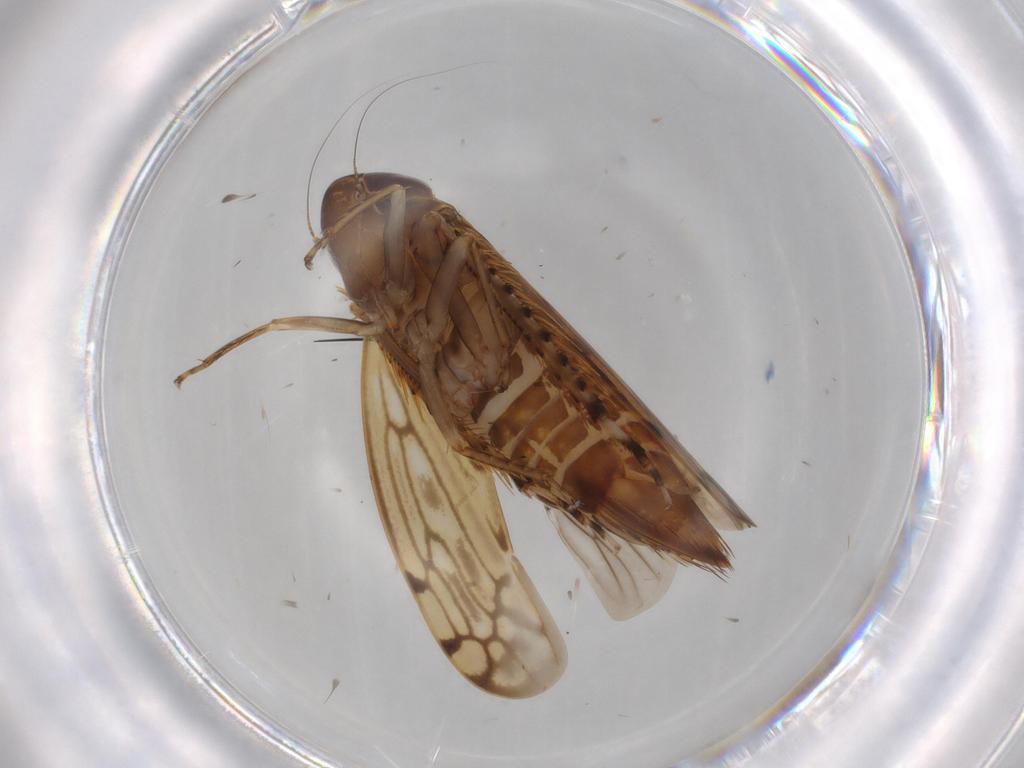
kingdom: Animalia
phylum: Arthropoda
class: Insecta
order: Hemiptera
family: Cicadellidae
